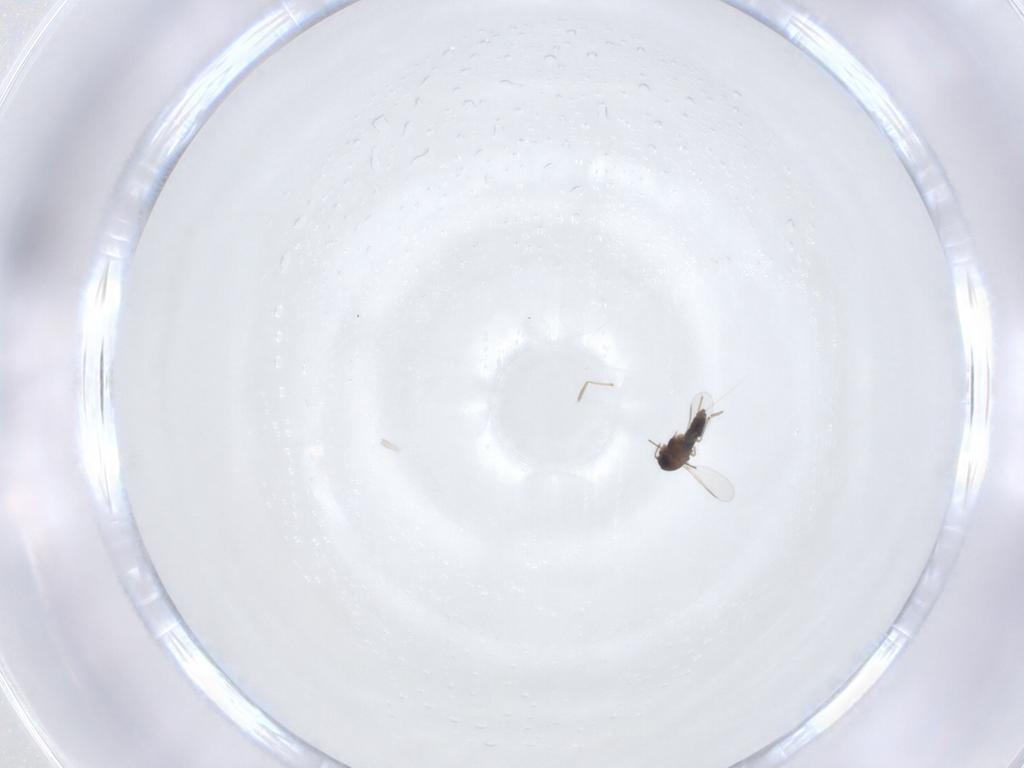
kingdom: Animalia
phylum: Arthropoda
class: Insecta
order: Diptera
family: Chironomidae
